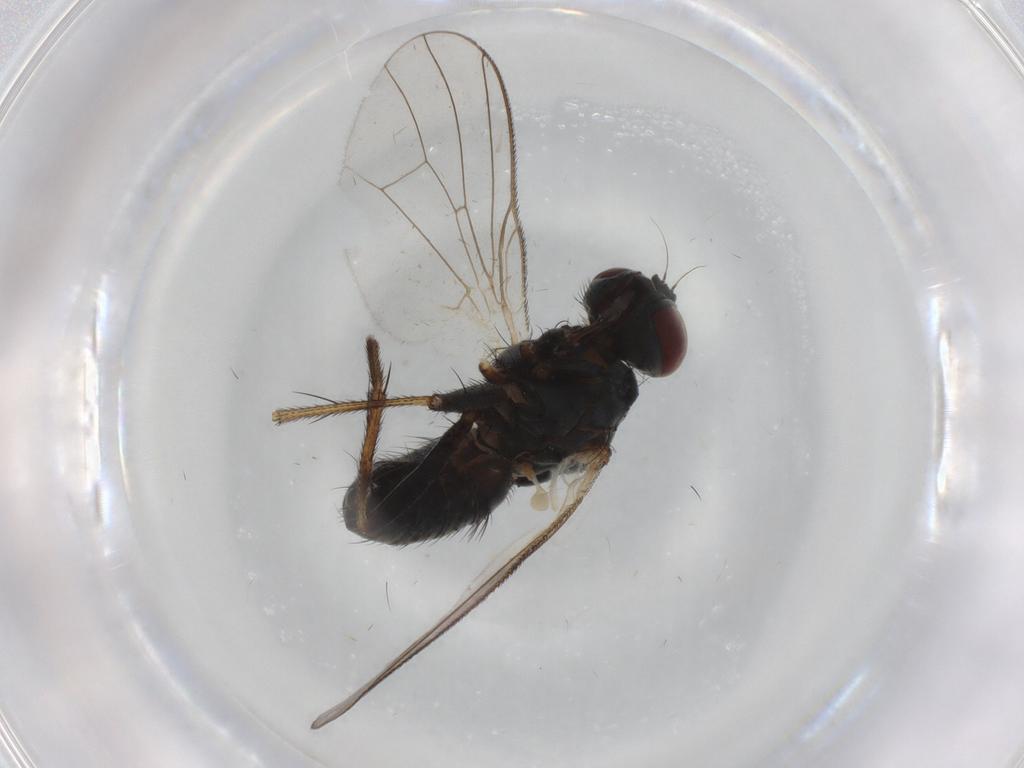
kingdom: Animalia
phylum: Arthropoda
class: Insecta
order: Diptera
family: Muscidae
